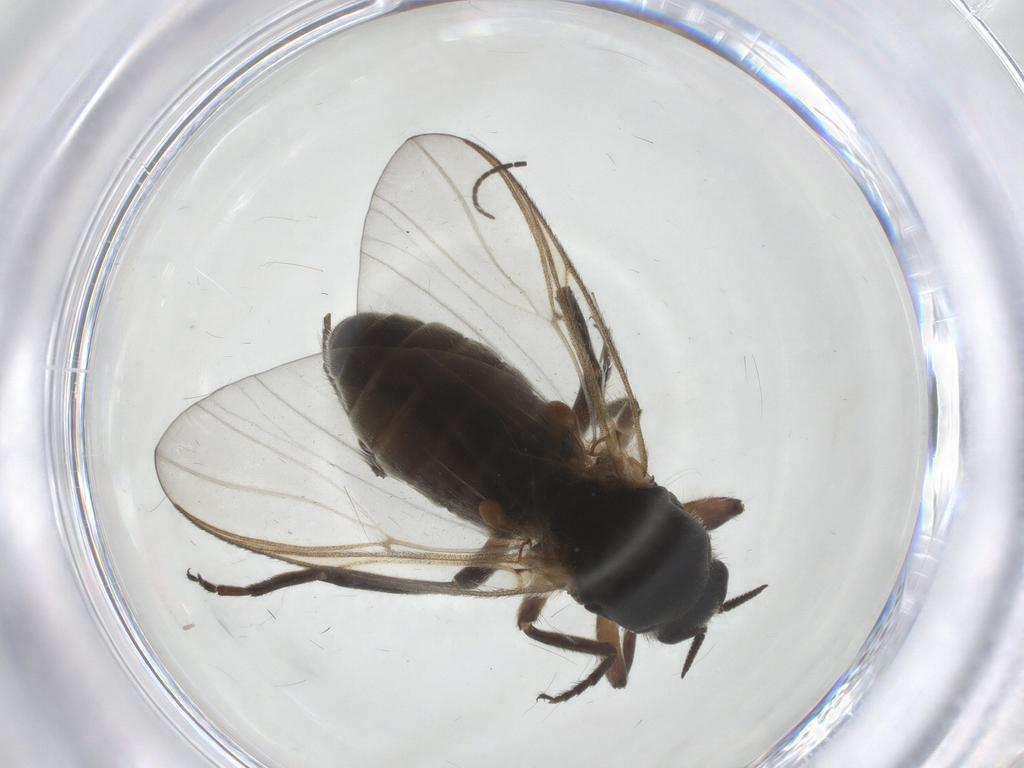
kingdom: Animalia
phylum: Arthropoda
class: Insecta
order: Diptera
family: Simuliidae
